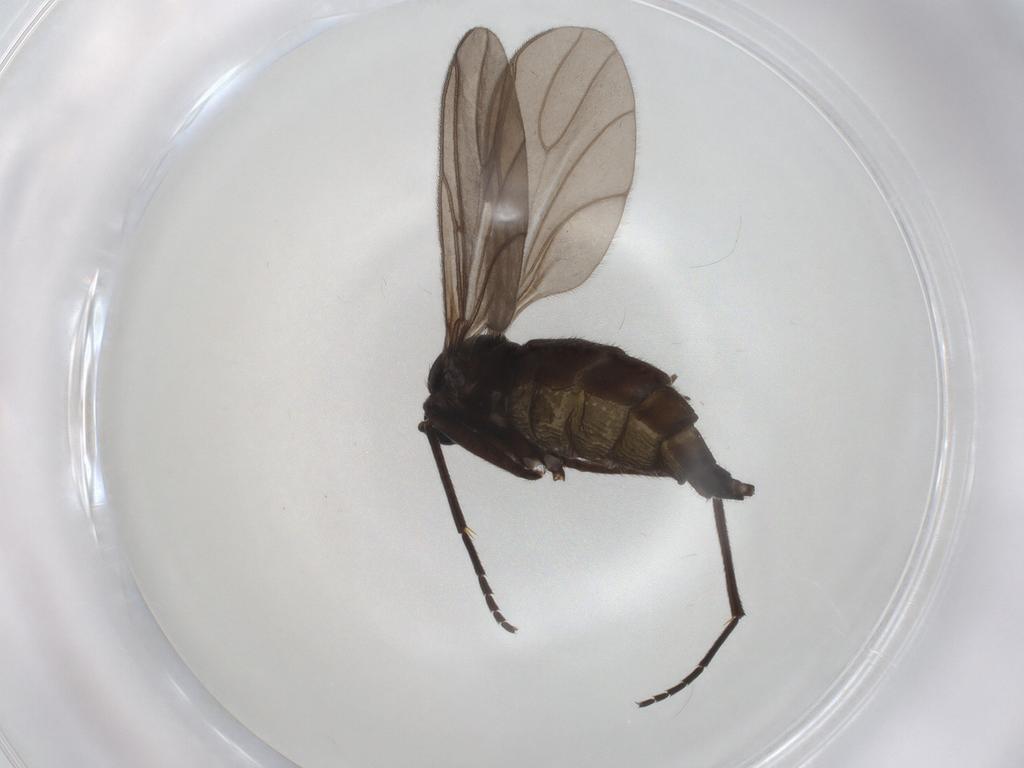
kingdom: Animalia
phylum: Arthropoda
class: Insecta
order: Diptera
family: Sciaridae
